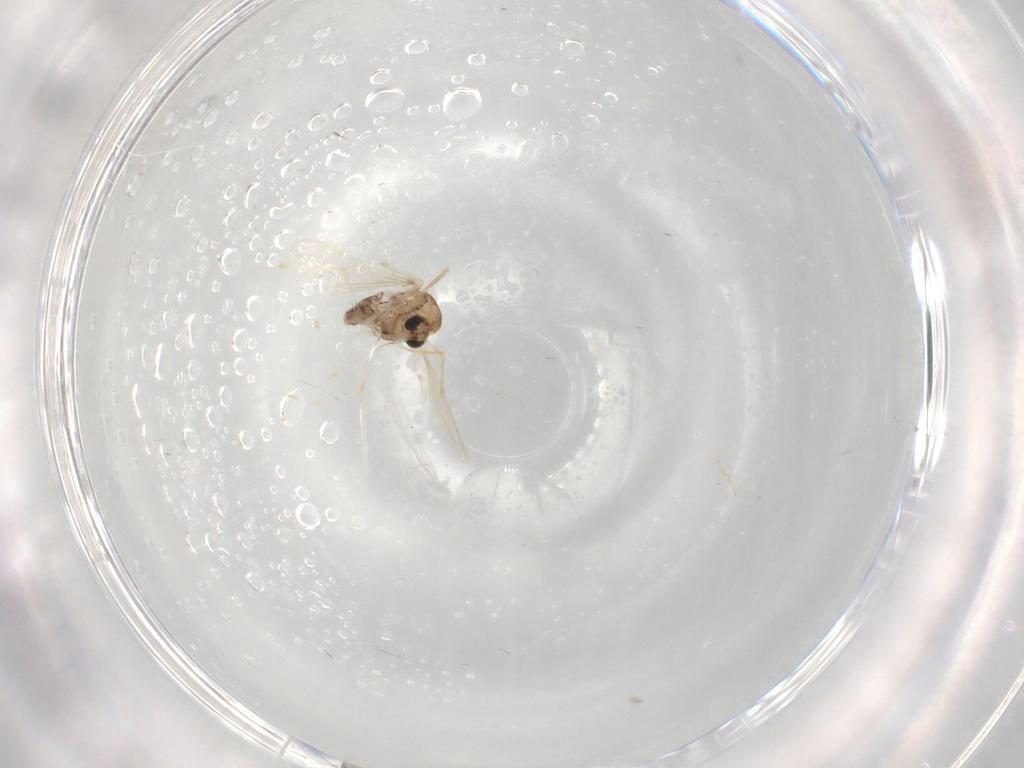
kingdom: Animalia
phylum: Arthropoda
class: Insecta
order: Diptera
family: Chironomidae
